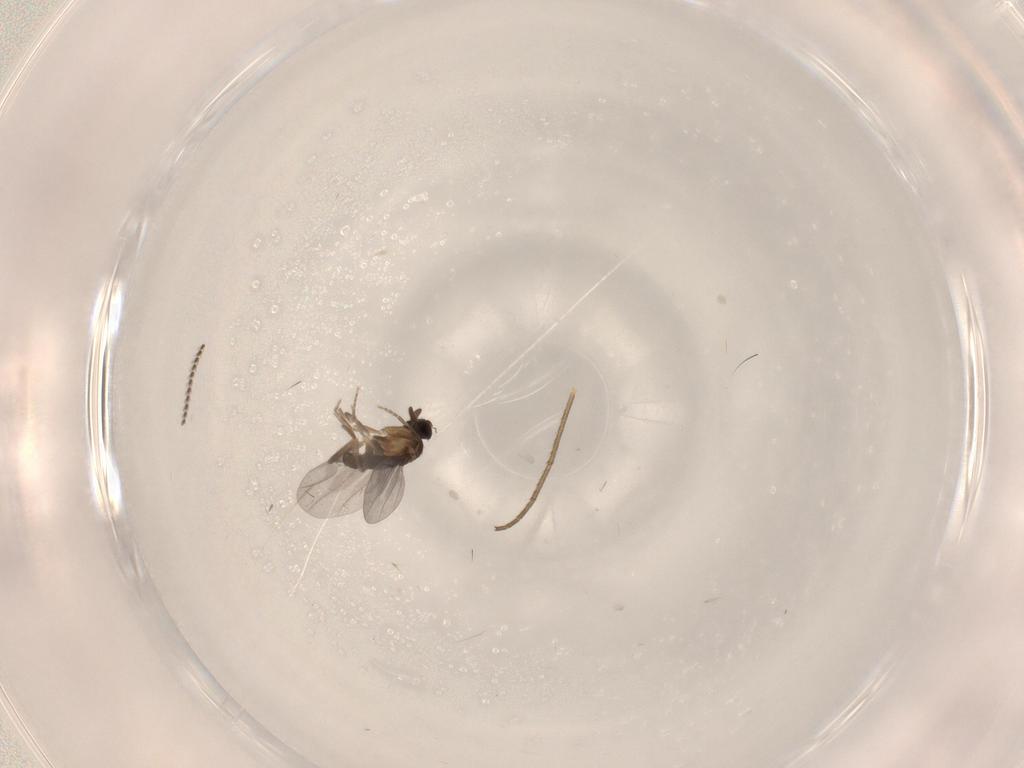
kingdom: Animalia
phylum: Arthropoda
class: Insecta
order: Diptera
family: Mycetophilidae
